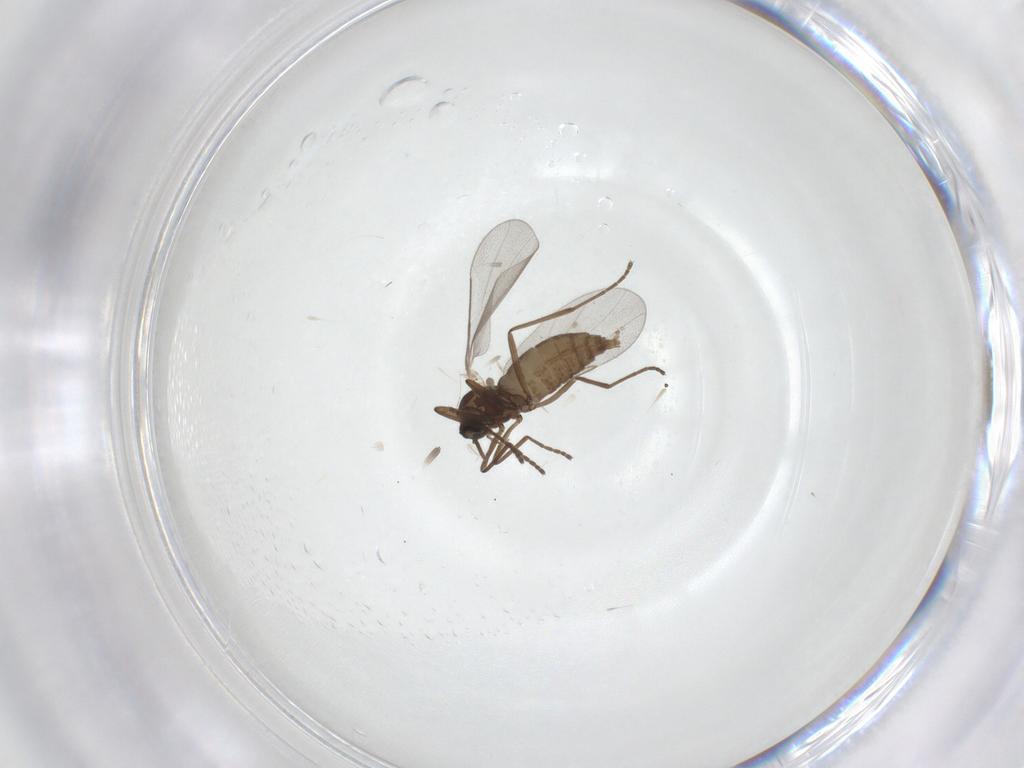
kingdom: Animalia
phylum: Arthropoda
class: Insecta
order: Diptera
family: Cecidomyiidae
